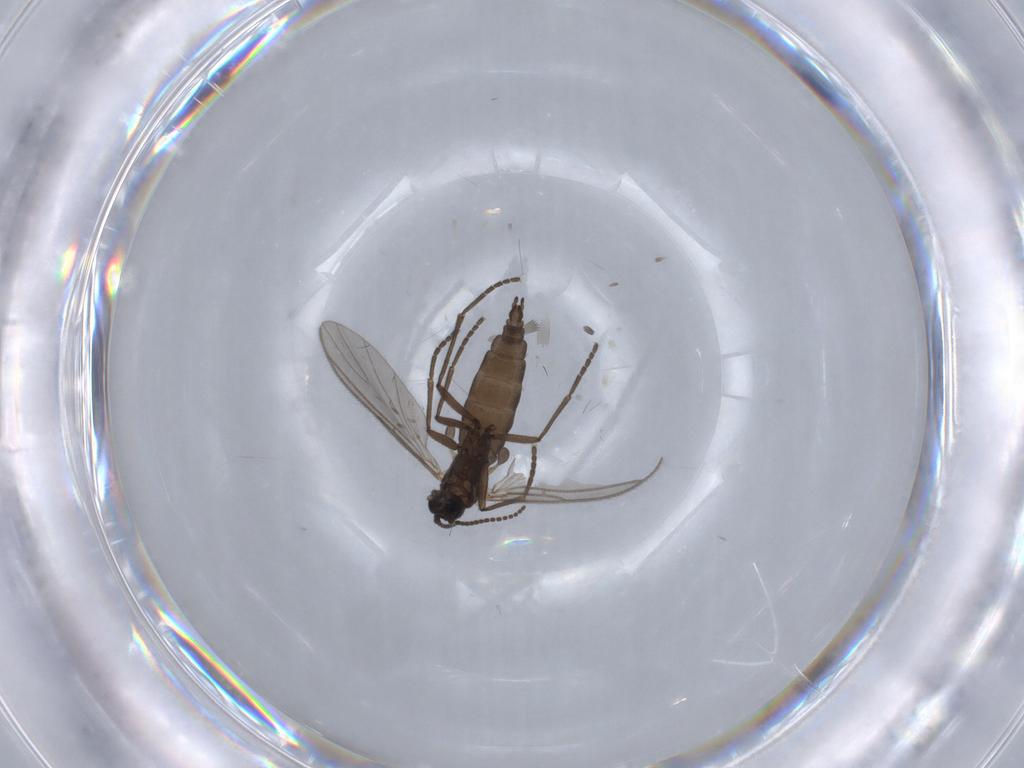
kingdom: Animalia
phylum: Arthropoda
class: Insecta
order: Diptera
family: Sciaridae
